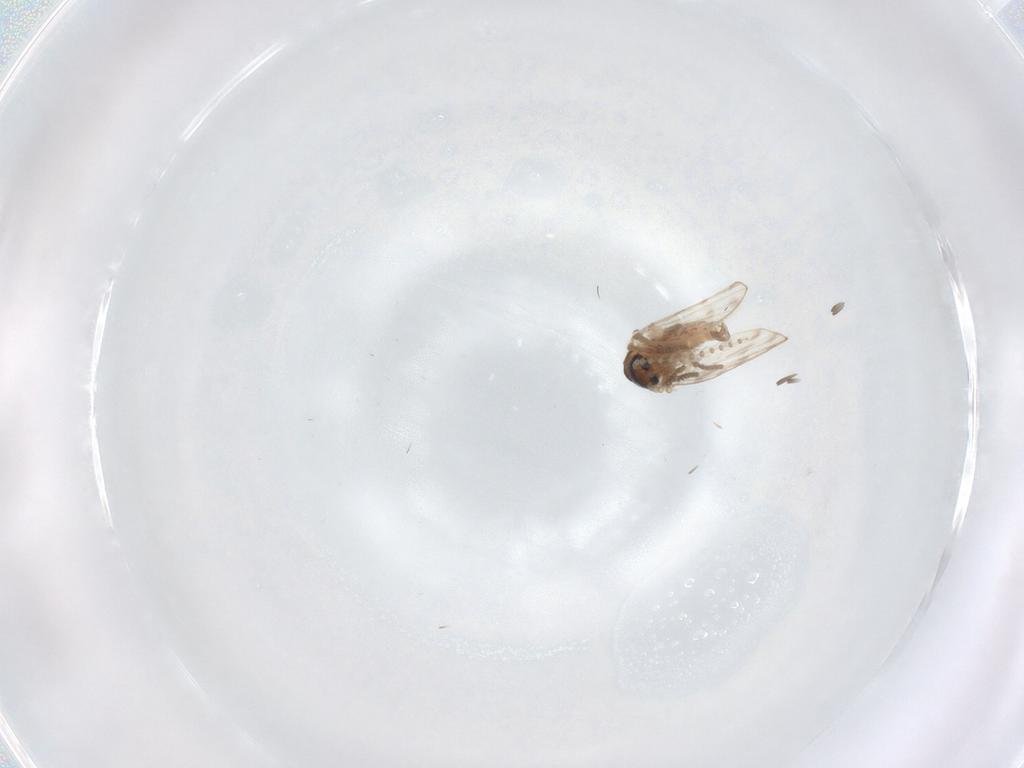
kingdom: Animalia
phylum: Arthropoda
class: Insecta
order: Diptera
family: Psychodidae
